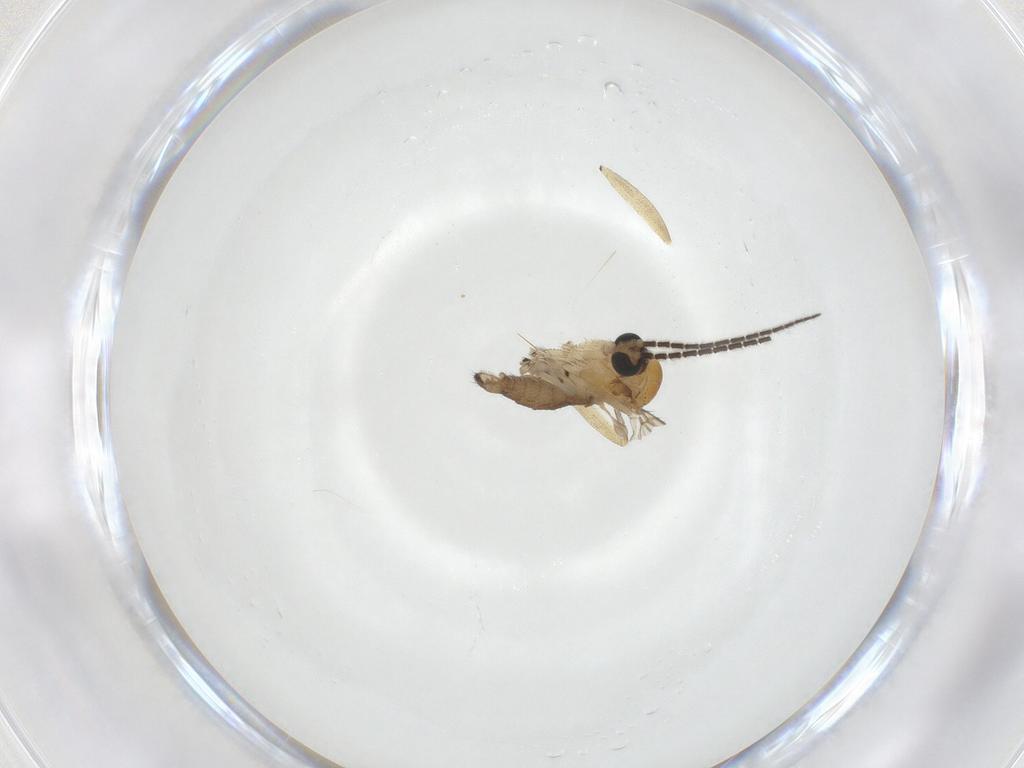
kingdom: Animalia
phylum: Arthropoda
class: Insecta
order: Diptera
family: Sciaridae
